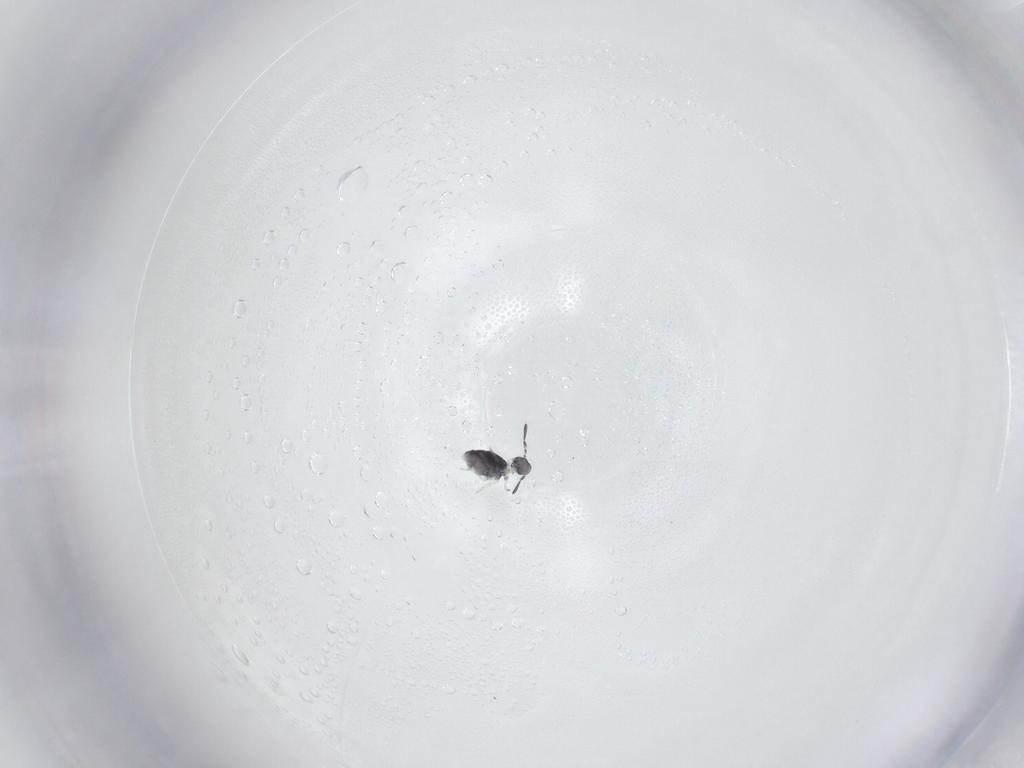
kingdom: Animalia
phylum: Arthropoda
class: Collembola
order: Symphypleona
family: Katiannidae
